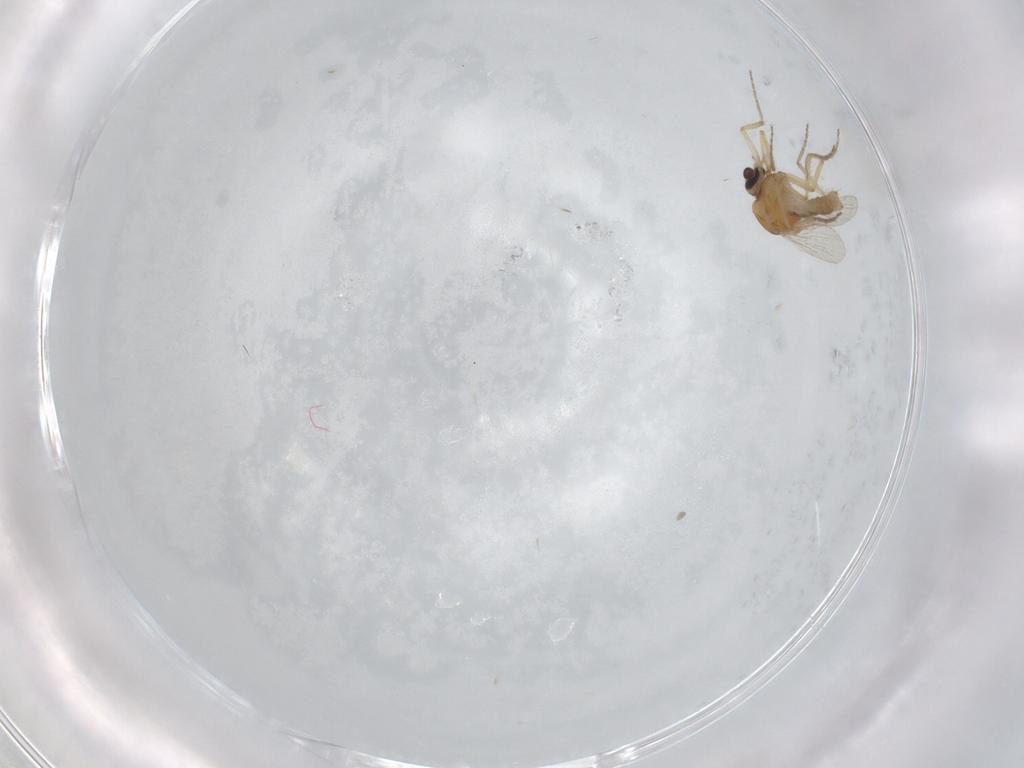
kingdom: Animalia
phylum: Arthropoda
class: Insecta
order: Diptera
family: Ceratopogonidae
